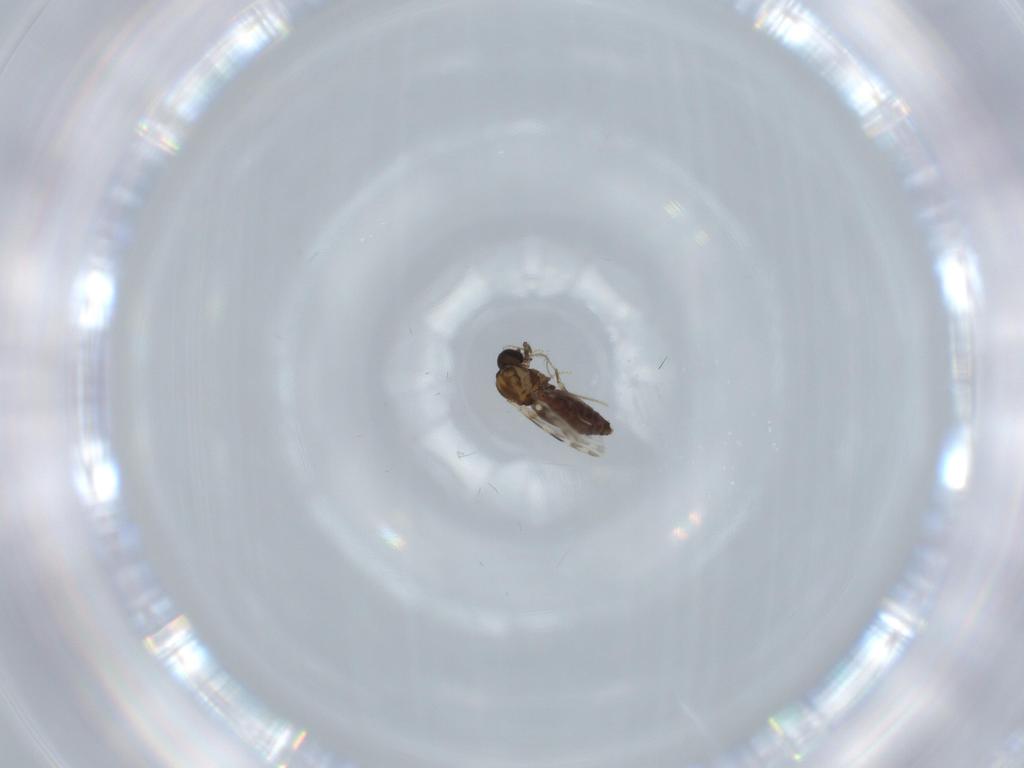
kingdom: Animalia
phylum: Arthropoda
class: Insecta
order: Diptera
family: Ceratopogonidae
